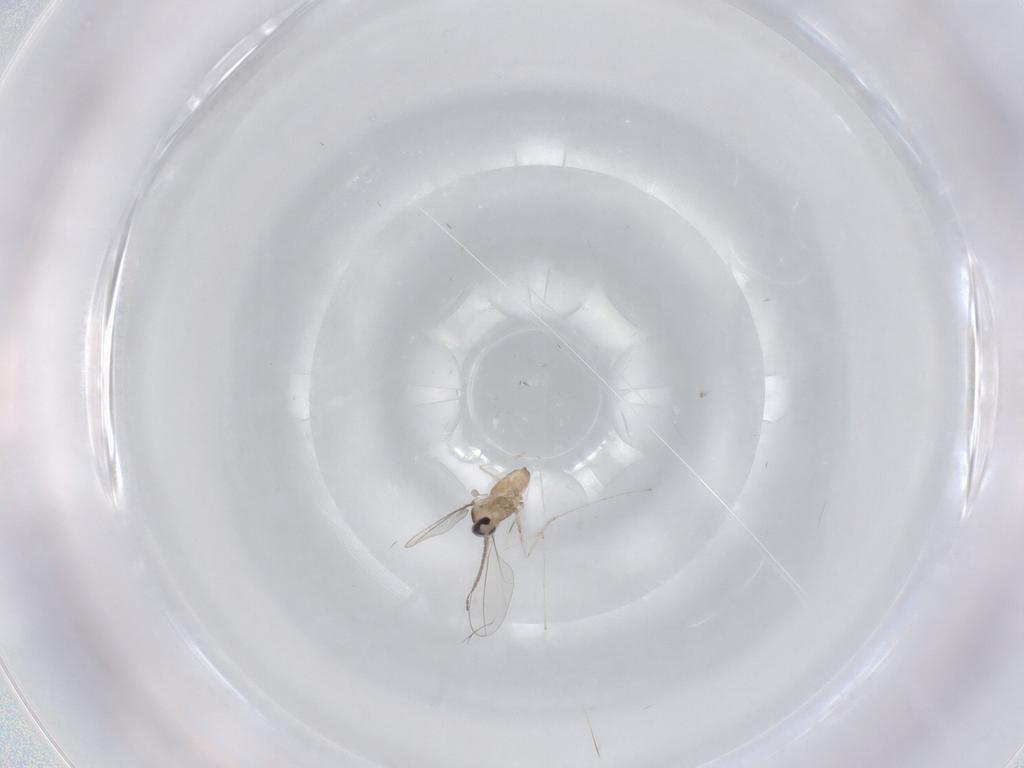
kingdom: Animalia
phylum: Arthropoda
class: Insecta
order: Diptera
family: Cecidomyiidae
